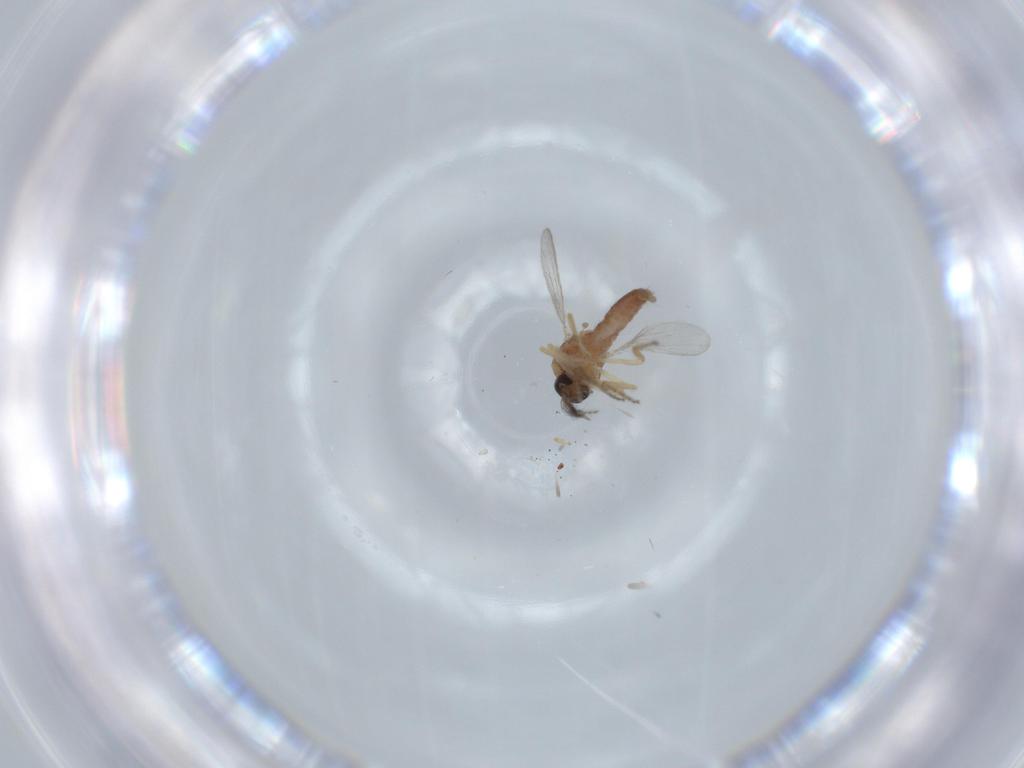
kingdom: Animalia
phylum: Arthropoda
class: Insecta
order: Diptera
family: Ceratopogonidae
